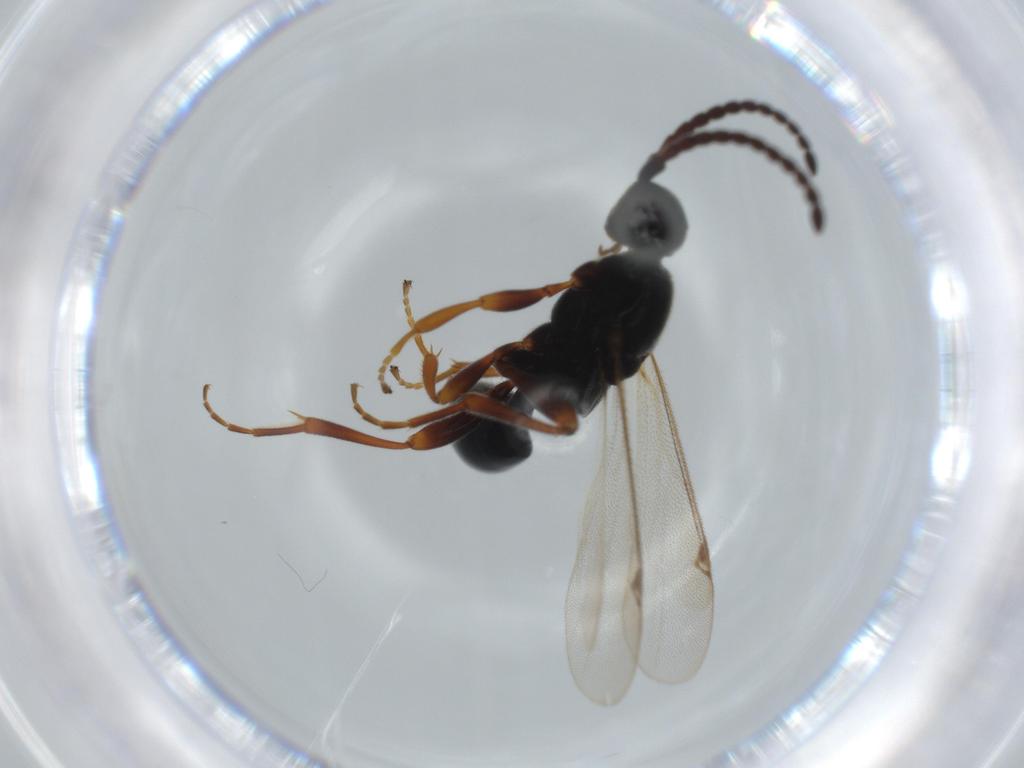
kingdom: Animalia
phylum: Arthropoda
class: Insecta
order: Hymenoptera
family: Proctotrupidae
